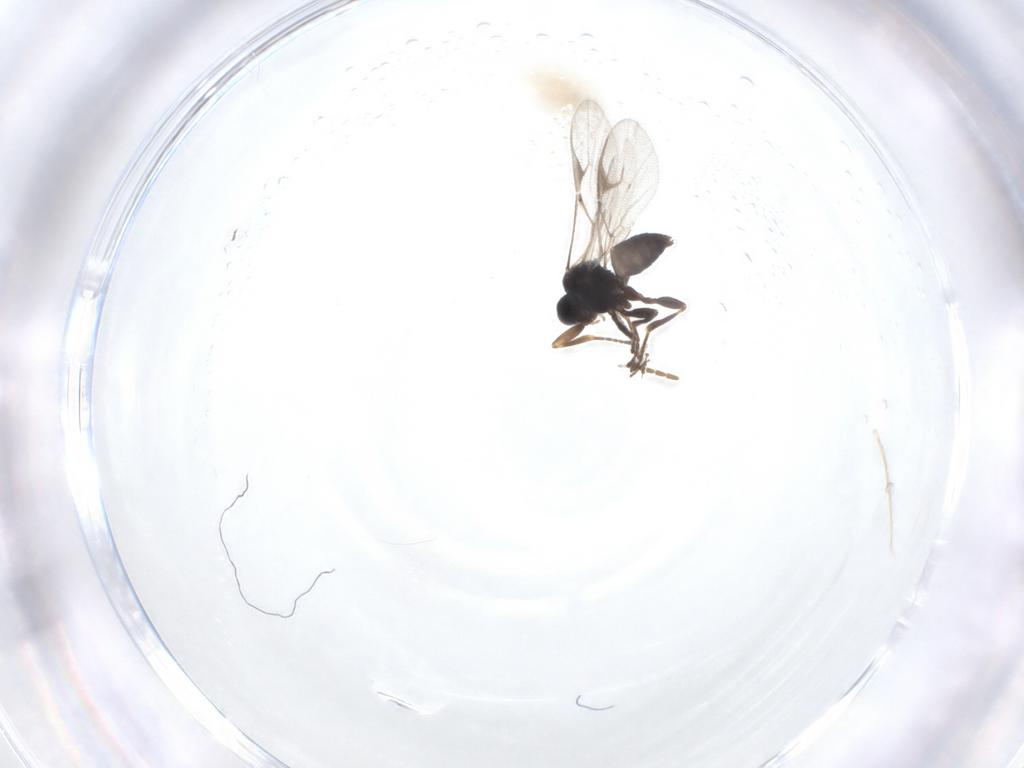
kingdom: Animalia
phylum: Arthropoda
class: Insecta
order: Hymenoptera
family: Braconidae
